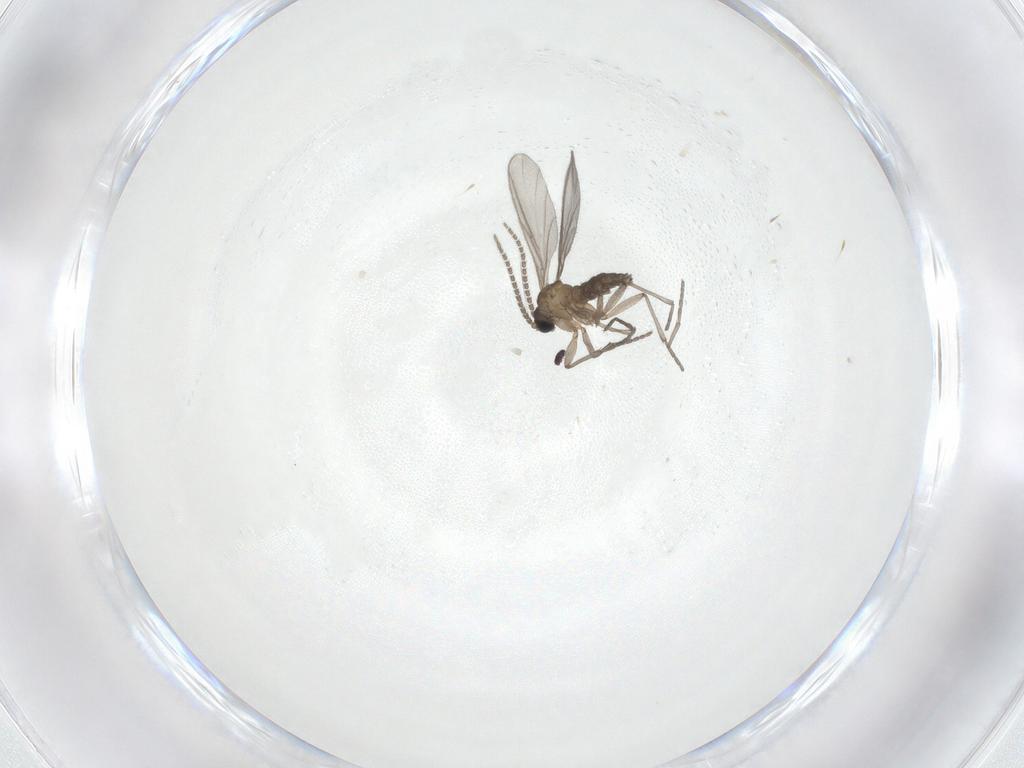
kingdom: Animalia
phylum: Arthropoda
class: Insecta
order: Diptera
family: Sciaridae
